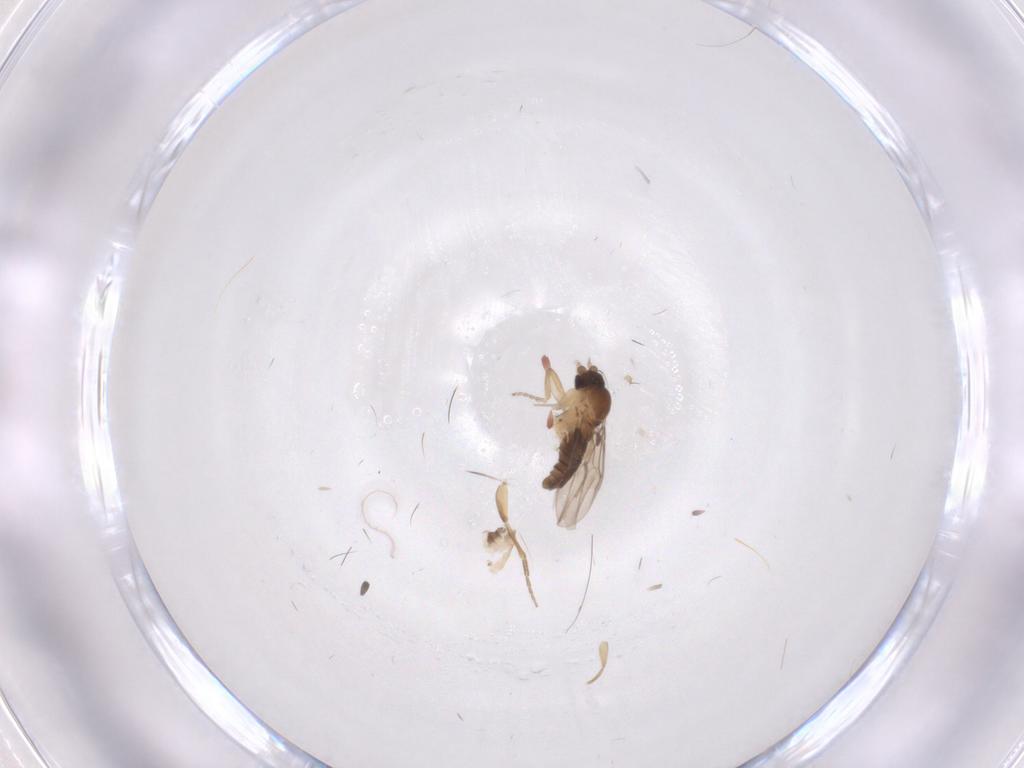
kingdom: Animalia
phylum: Arthropoda
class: Insecta
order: Diptera
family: Phoridae
